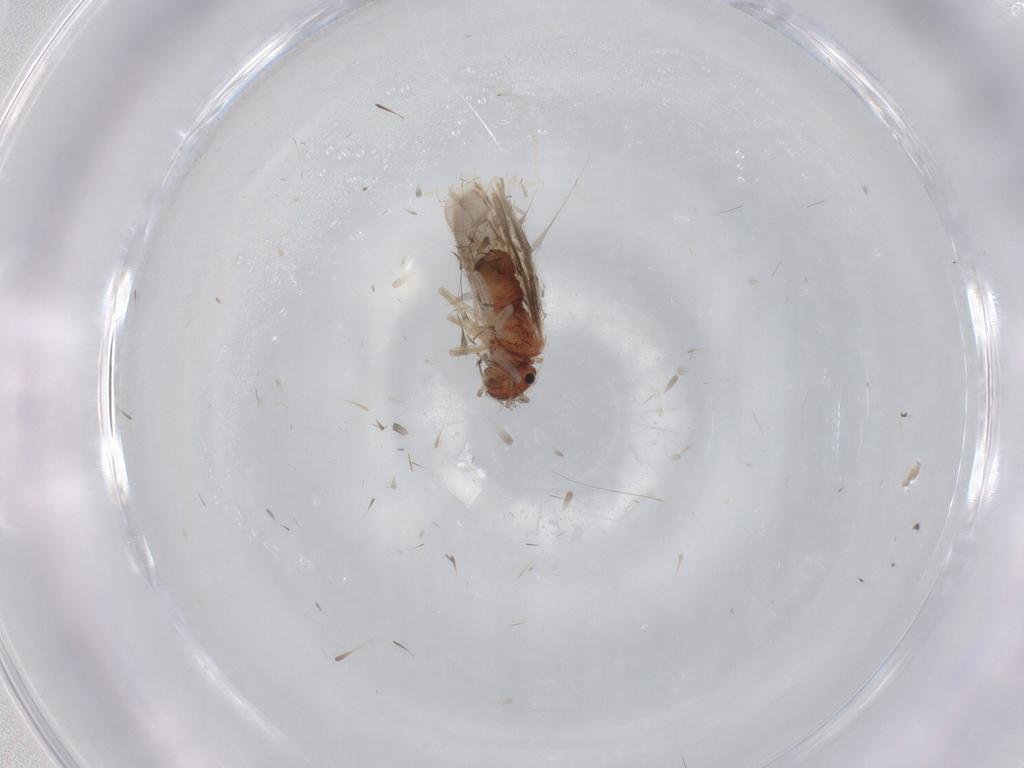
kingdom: Animalia
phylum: Arthropoda
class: Insecta
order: Psocodea
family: Archipsocidae
